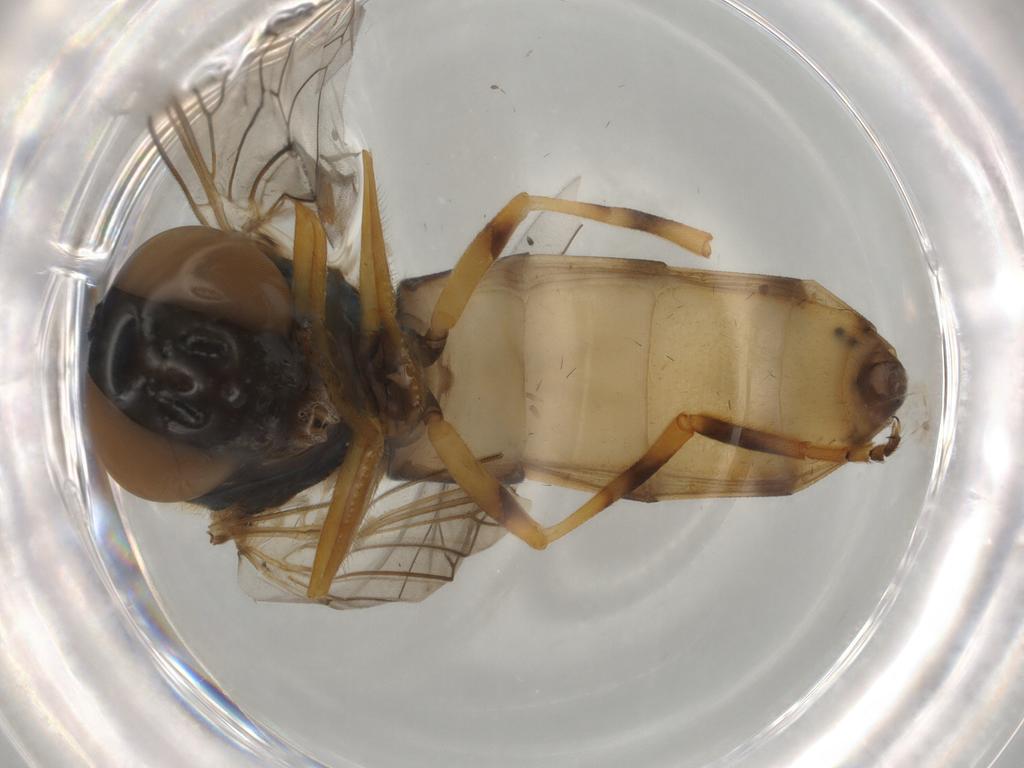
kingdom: Animalia
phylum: Arthropoda
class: Insecta
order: Diptera
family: Syrphidae
